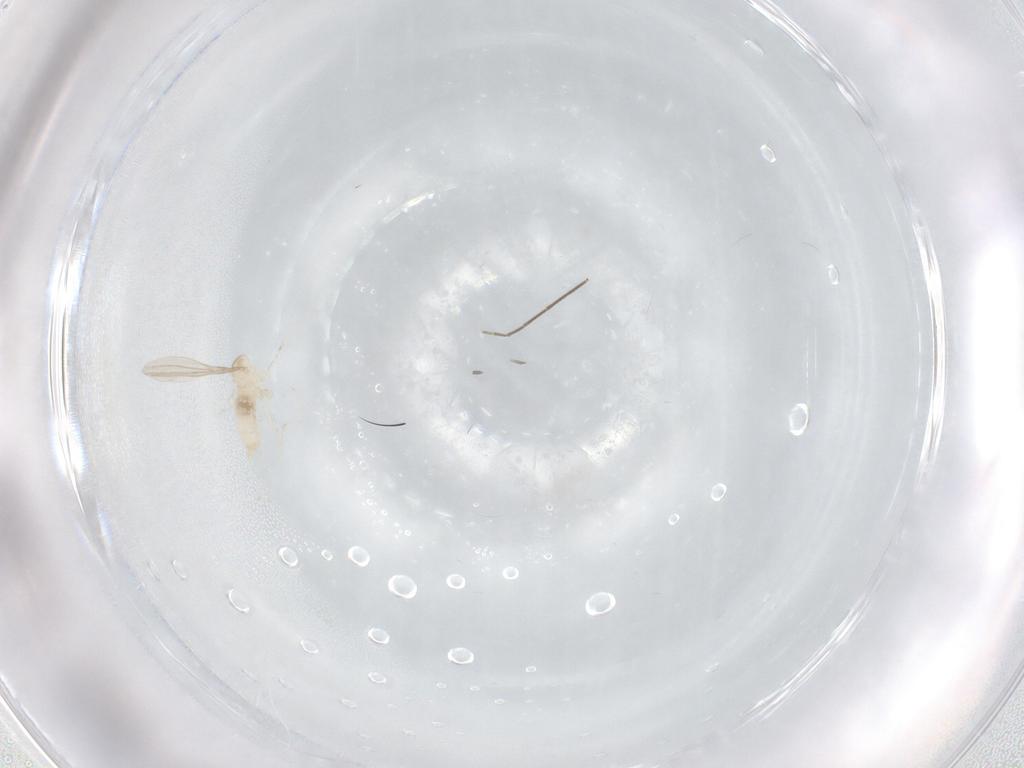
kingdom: Animalia
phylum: Arthropoda
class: Insecta
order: Diptera
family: Chironomidae
